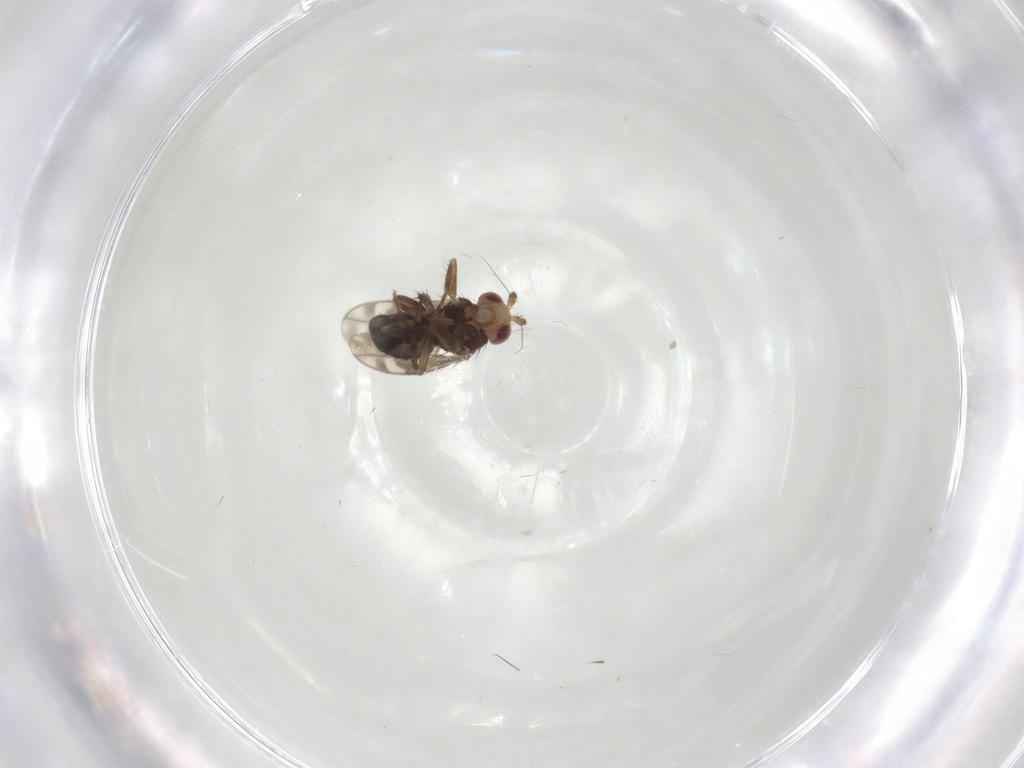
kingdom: Animalia
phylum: Arthropoda
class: Insecta
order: Diptera
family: Sphaeroceridae
